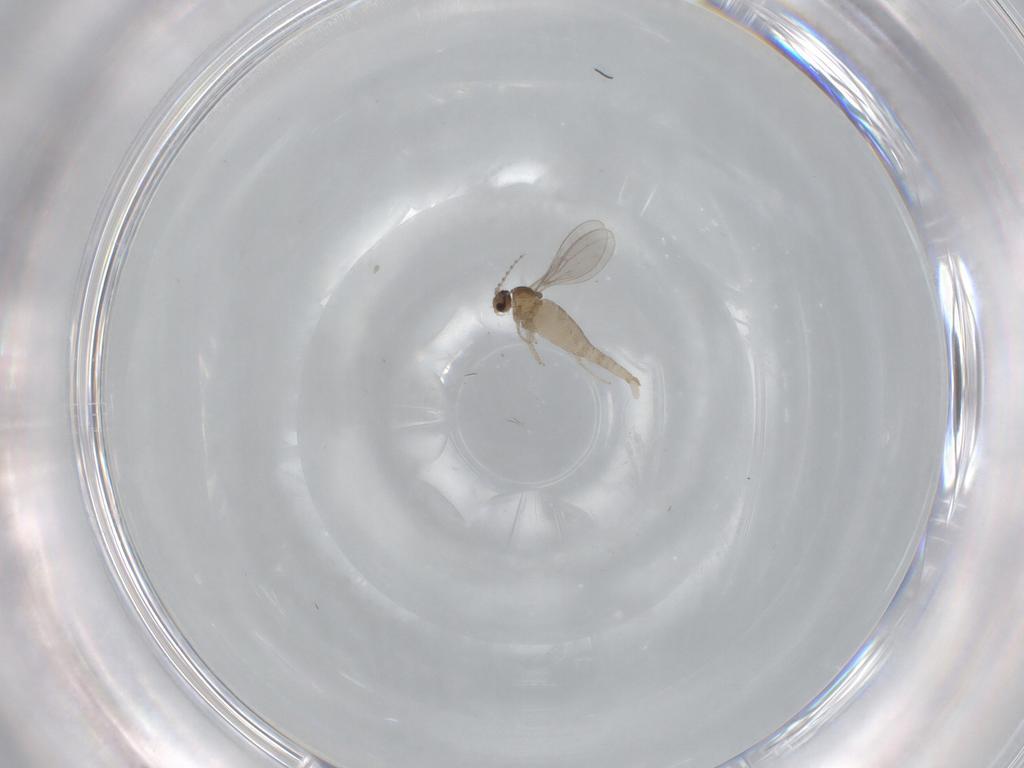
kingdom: Animalia
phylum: Arthropoda
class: Insecta
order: Diptera
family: Cecidomyiidae
